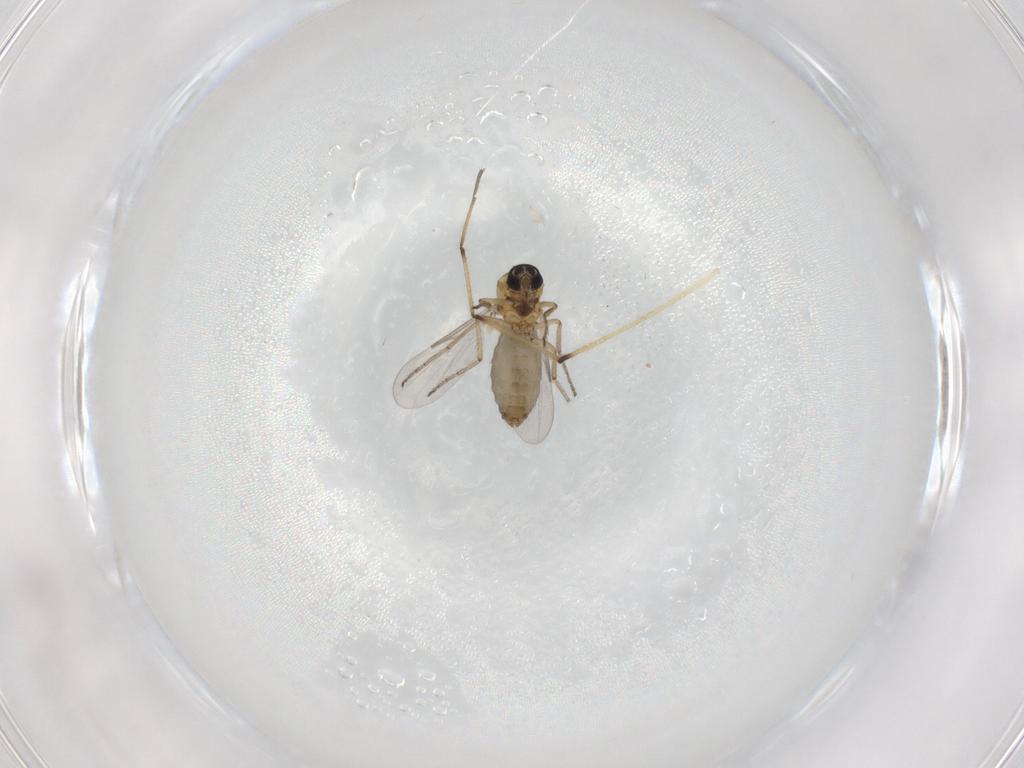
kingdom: Animalia
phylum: Arthropoda
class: Insecta
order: Diptera
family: Ceratopogonidae
